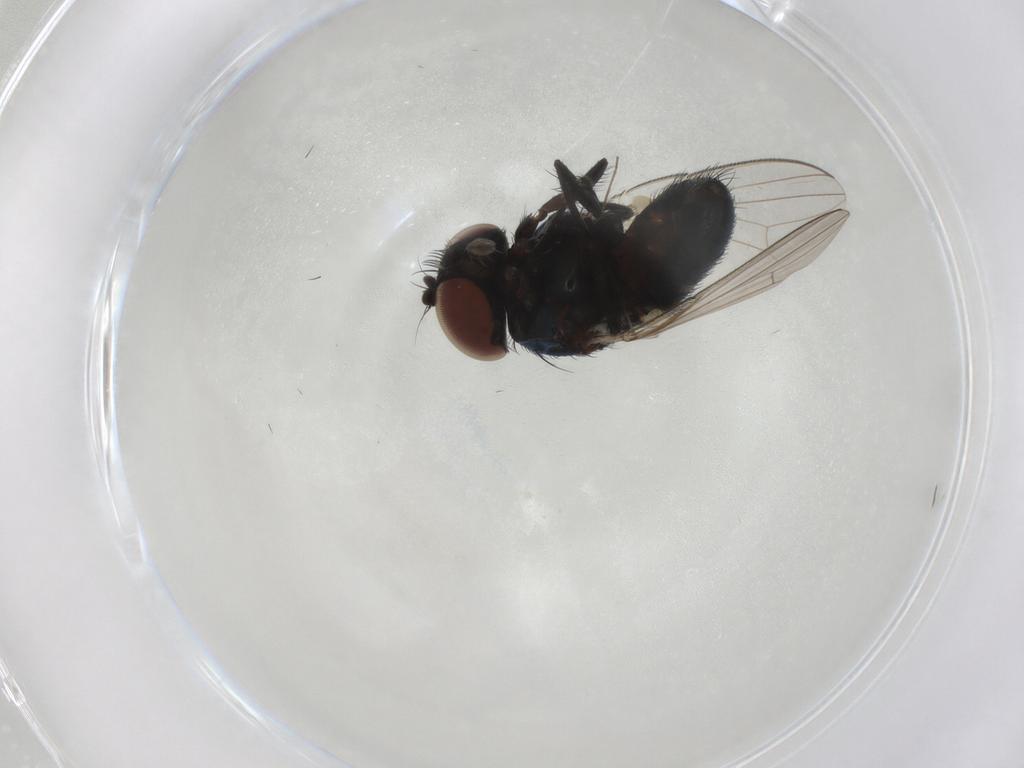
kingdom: Animalia
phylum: Arthropoda
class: Insecta
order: Diptera
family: Milichiidae
